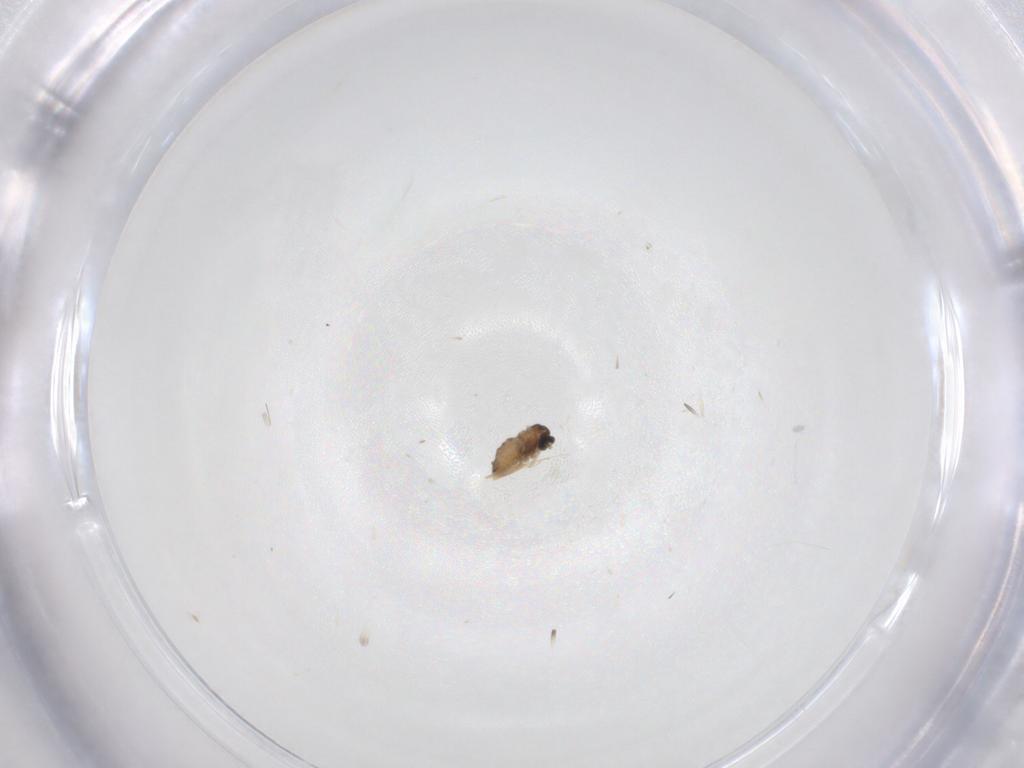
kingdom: Animalia
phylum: Arthropoda
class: Insecta
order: Diptera
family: Cecidomyiidae
